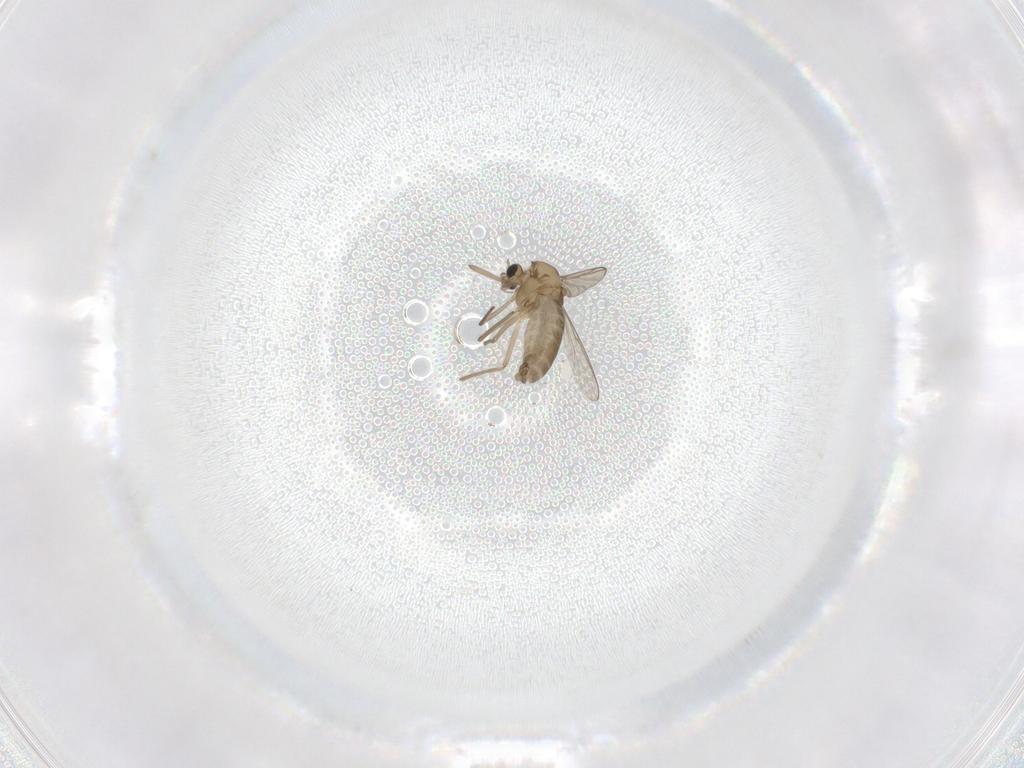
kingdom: Animalia
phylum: Arthropoda
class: Insecta
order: Diptera
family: Chironomidae
